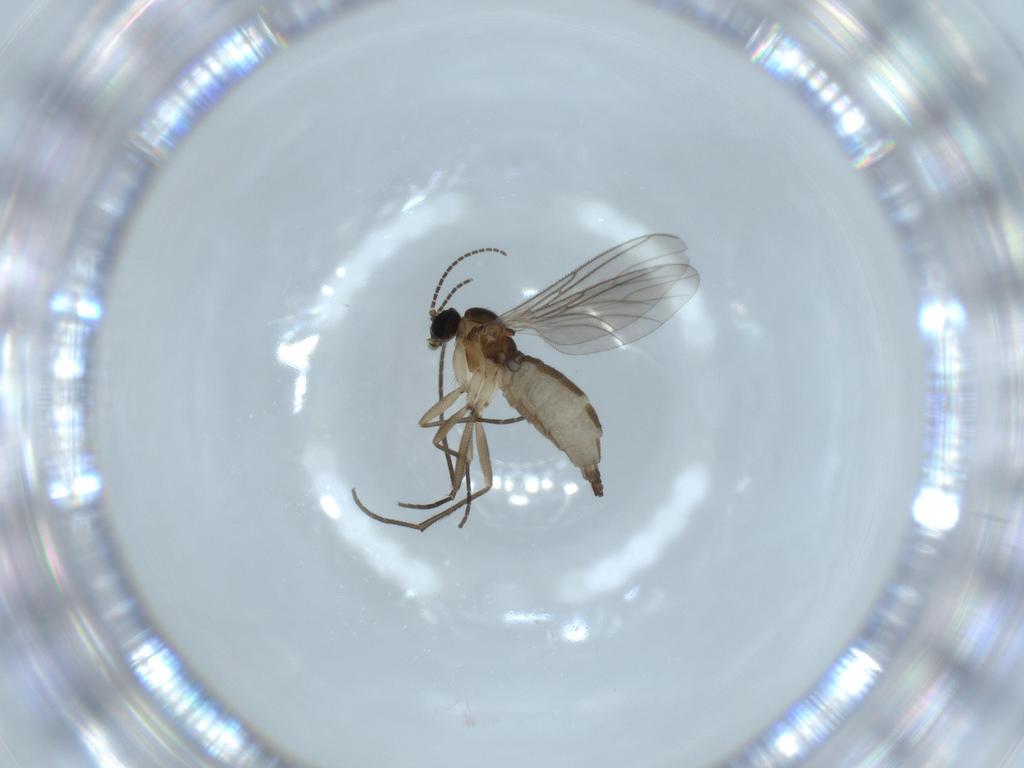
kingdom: Animalia
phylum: Arthropoda
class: Insecta
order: Diptera
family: Sciaridae
